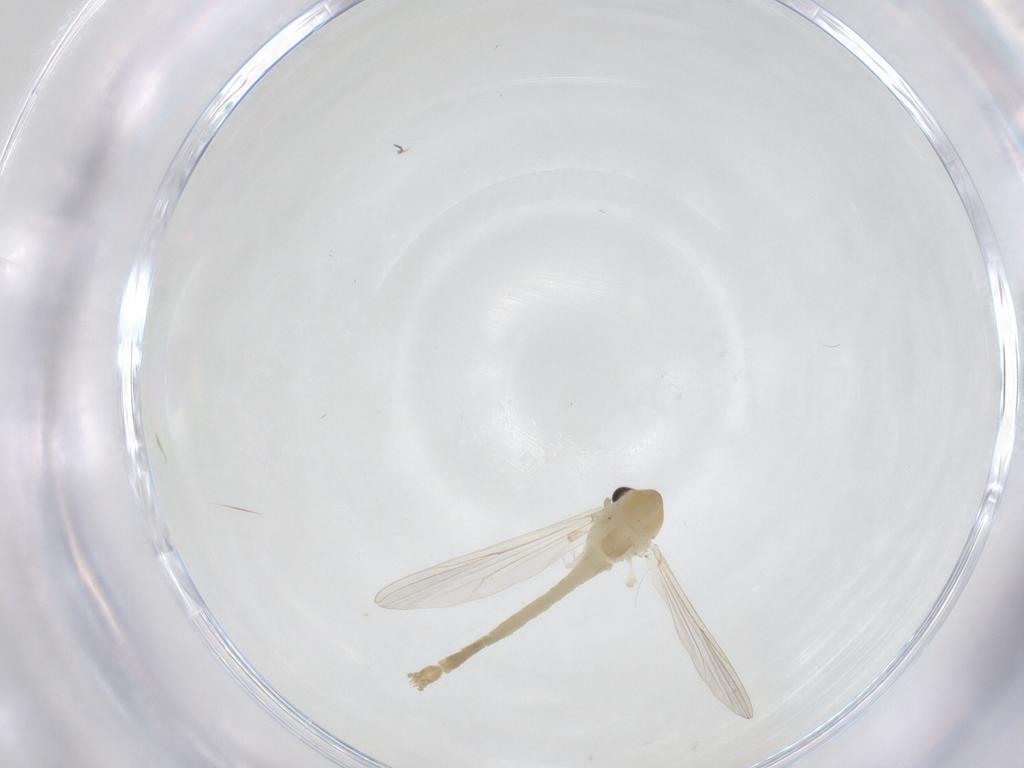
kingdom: Animalia
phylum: Arthropoda
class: Insecta
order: Diptera
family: Chironomidae
